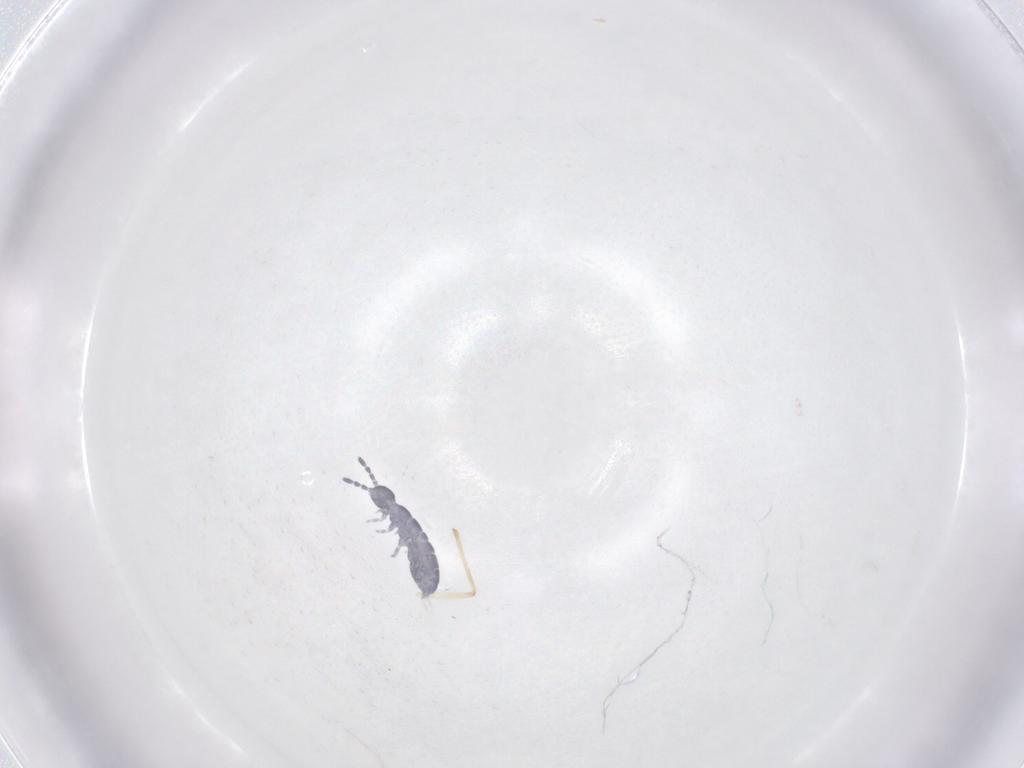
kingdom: Animalia
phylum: Arthropoda
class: Collembola
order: Entomobryomorpha
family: Isotomidae
